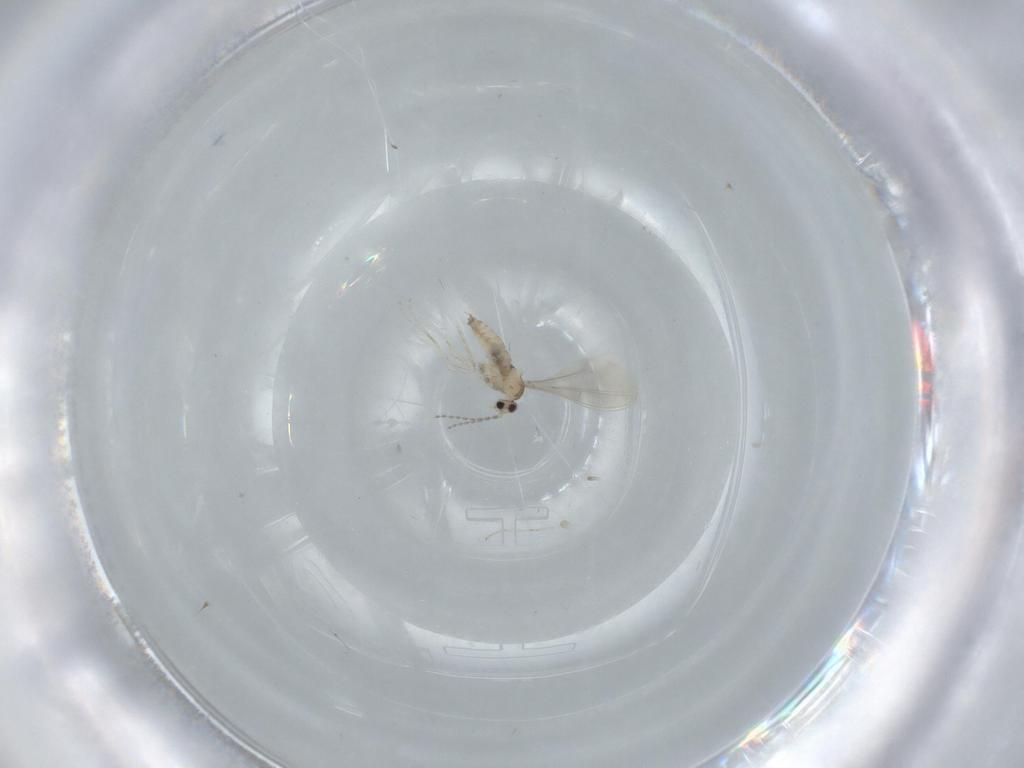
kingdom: Animalia
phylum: Arthropoda
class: Insecta
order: Diptera
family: Cecidomyiidae
